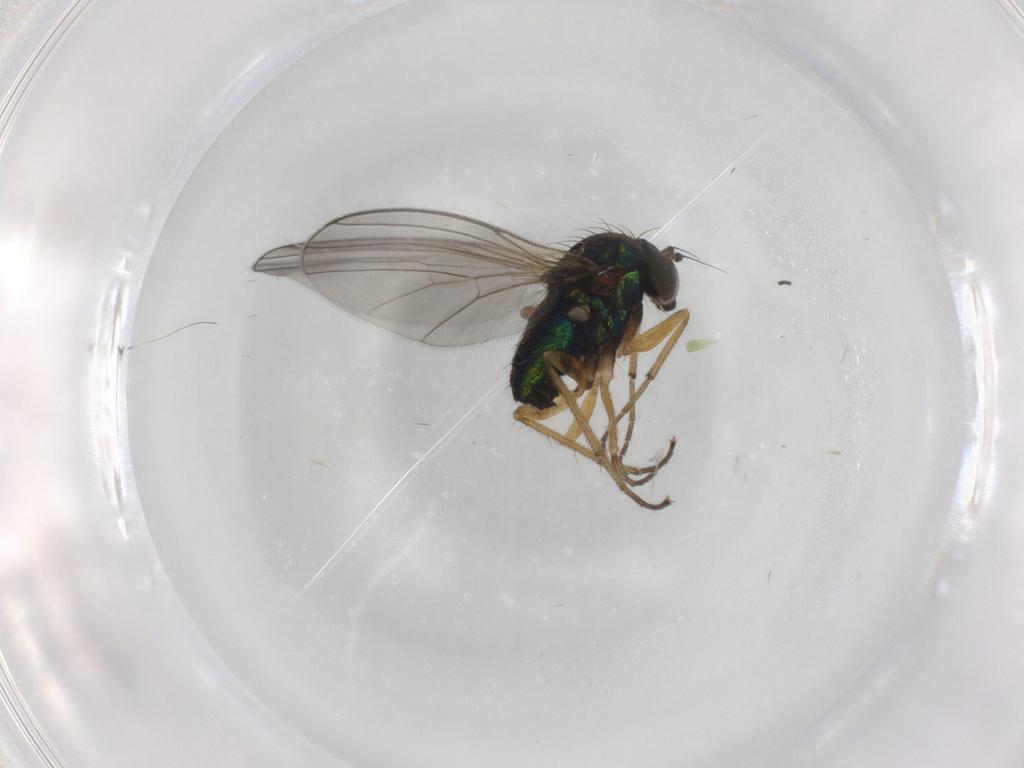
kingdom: Animalia
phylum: Arthropoda
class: Insecta
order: Diptera
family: Dolichopodidae
